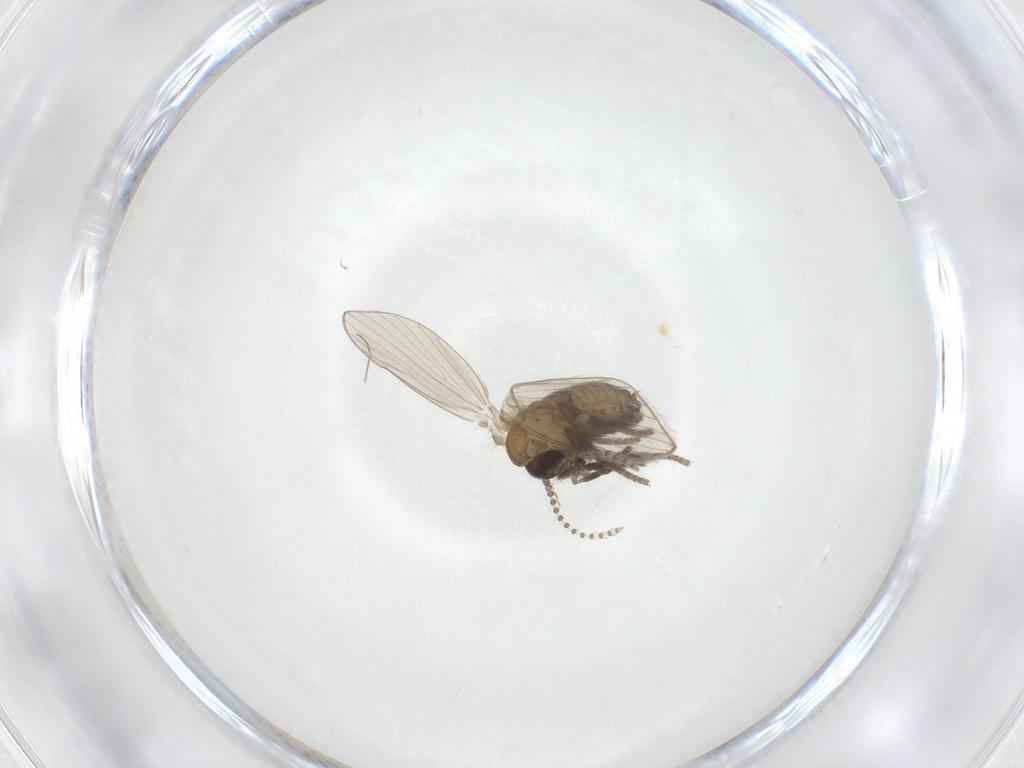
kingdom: Animalia
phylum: Arthropoda
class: Insecta
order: Diptera
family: Psychodidae
